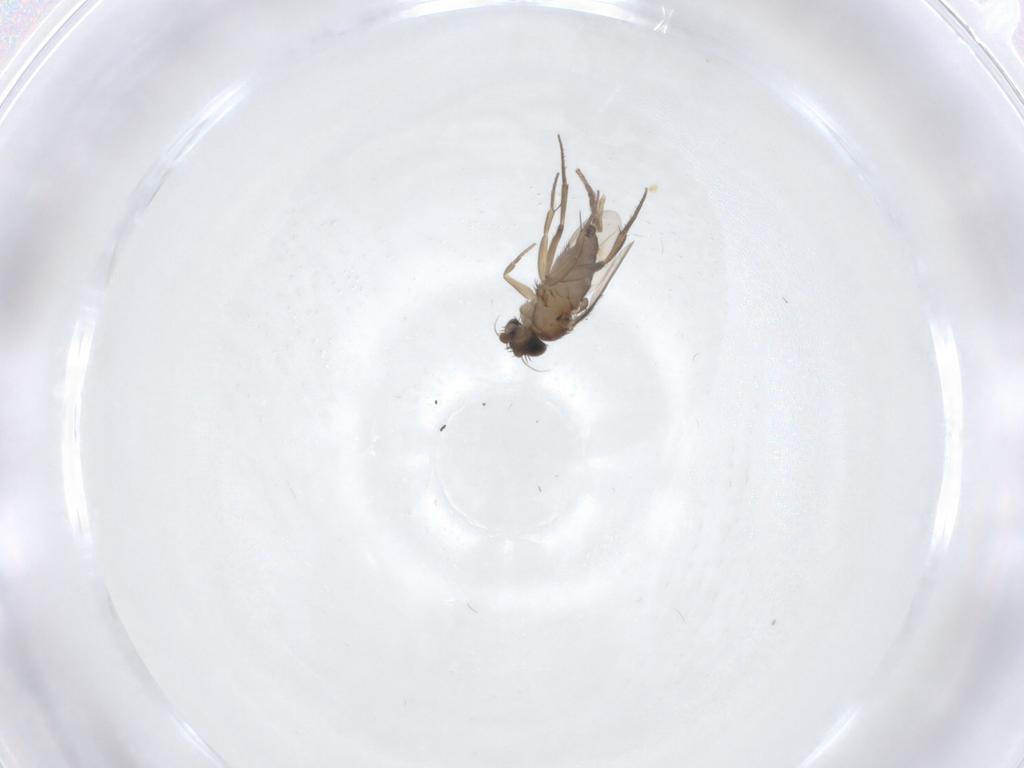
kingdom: Animalia
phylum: Arthropoda
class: Insecta
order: Diptera
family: Phoridae
